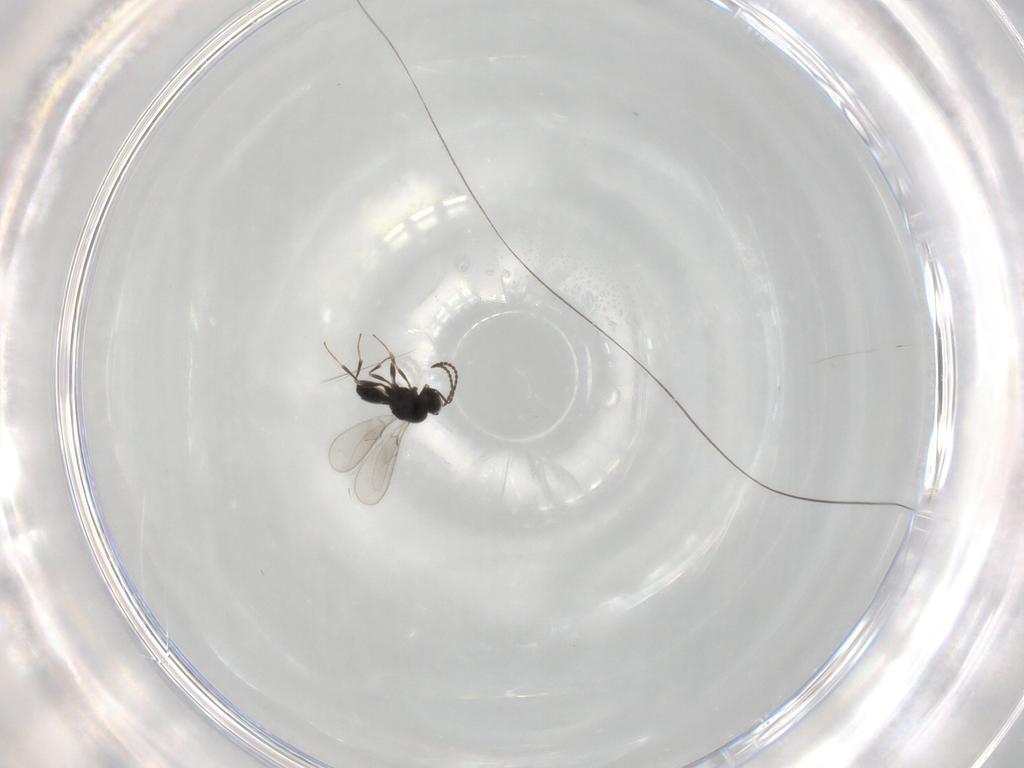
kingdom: Animalia
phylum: Arthropoda
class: Insecta
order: Hymenoptera
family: Scelionidae
